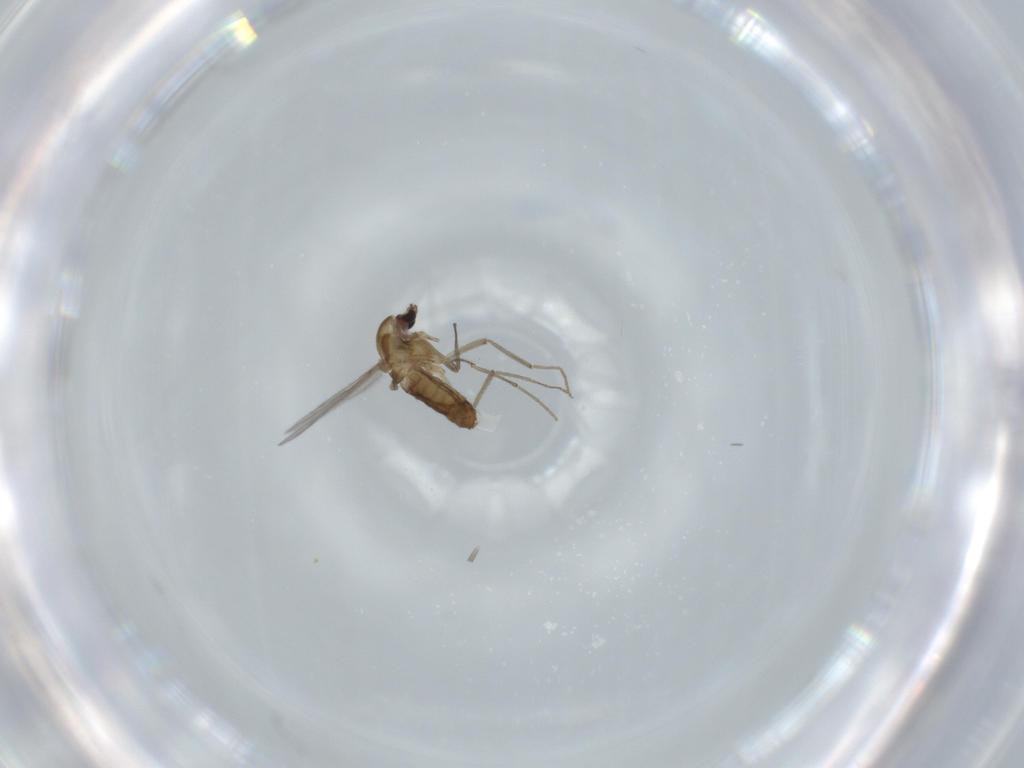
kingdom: Animalia
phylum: Arthropoda
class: Insecta
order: Diptera
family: Chironomidae
